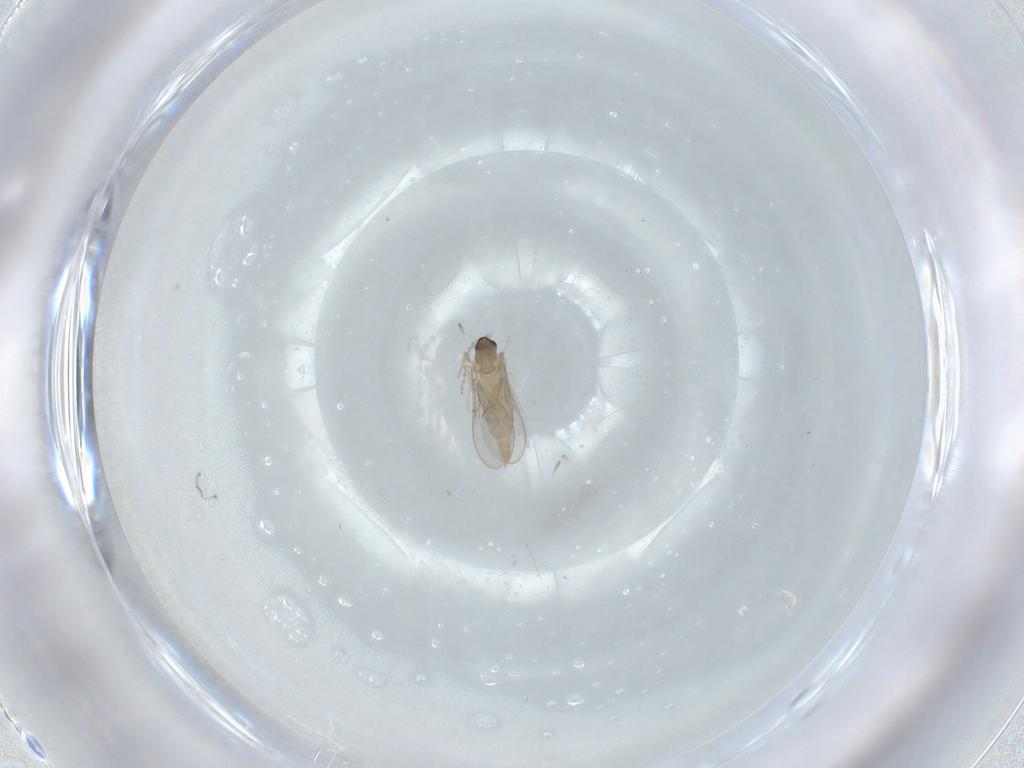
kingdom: Animalia
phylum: Arthropoda
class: Insecta
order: Diptera
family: Cecidomyiidae
